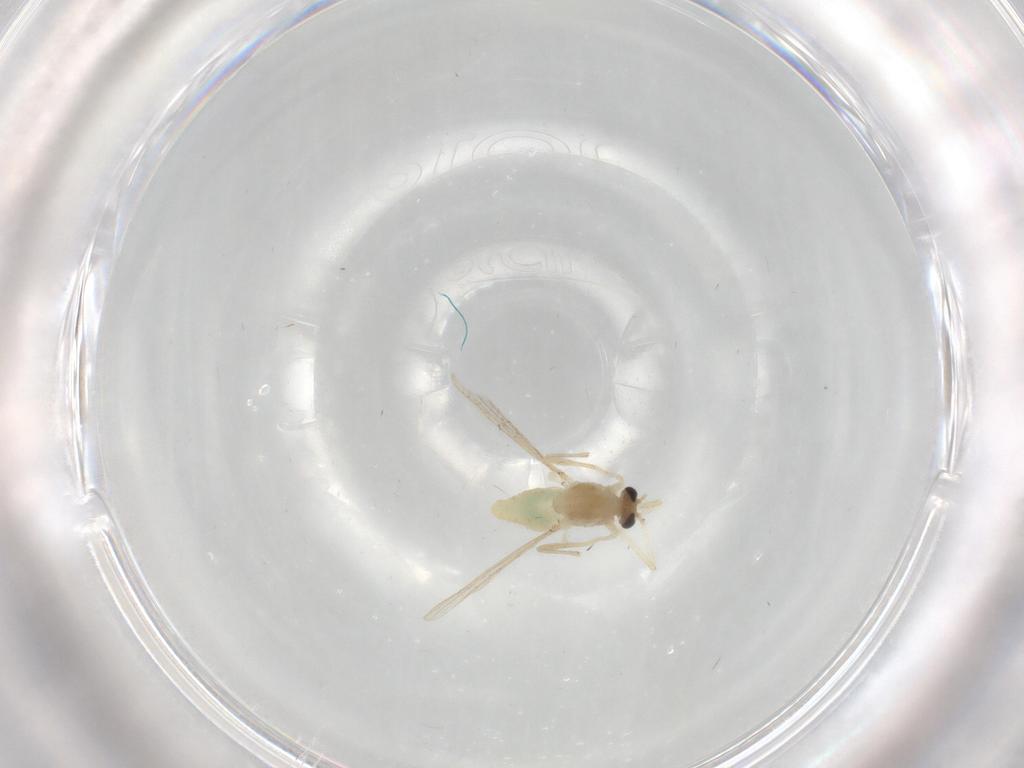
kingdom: Animalia
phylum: Arthropoda
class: Insecta
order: Diptera
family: Chironomidae
